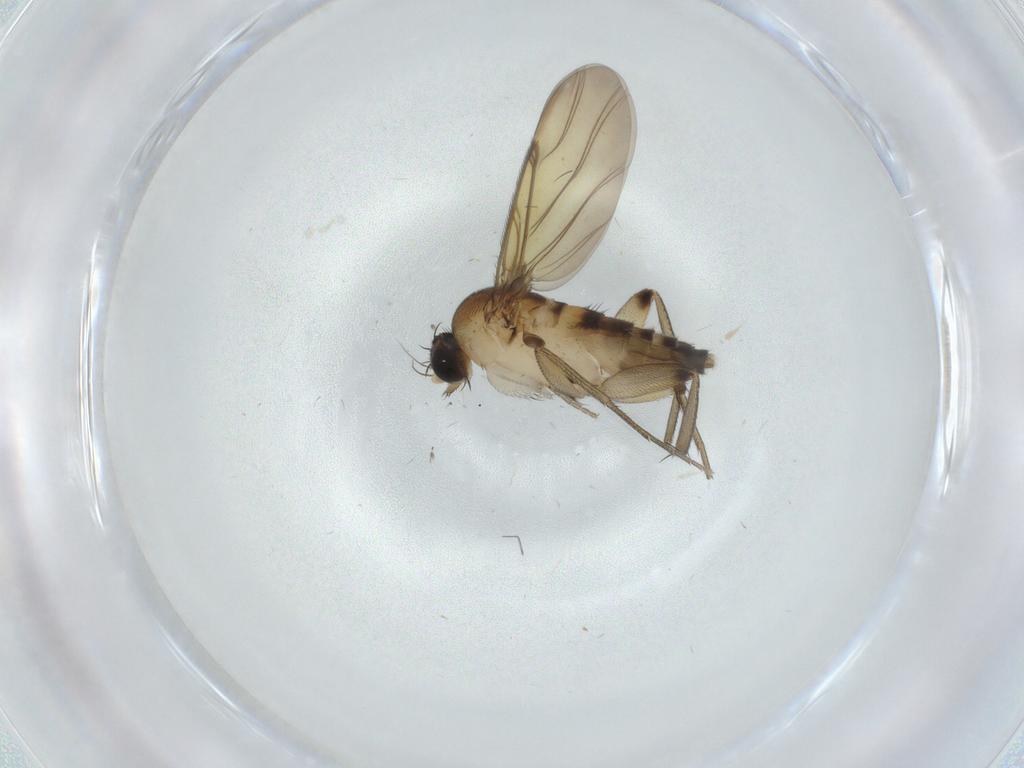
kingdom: Animalia
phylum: Arthropoda
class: Insecta
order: Diptera
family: Phoridae
